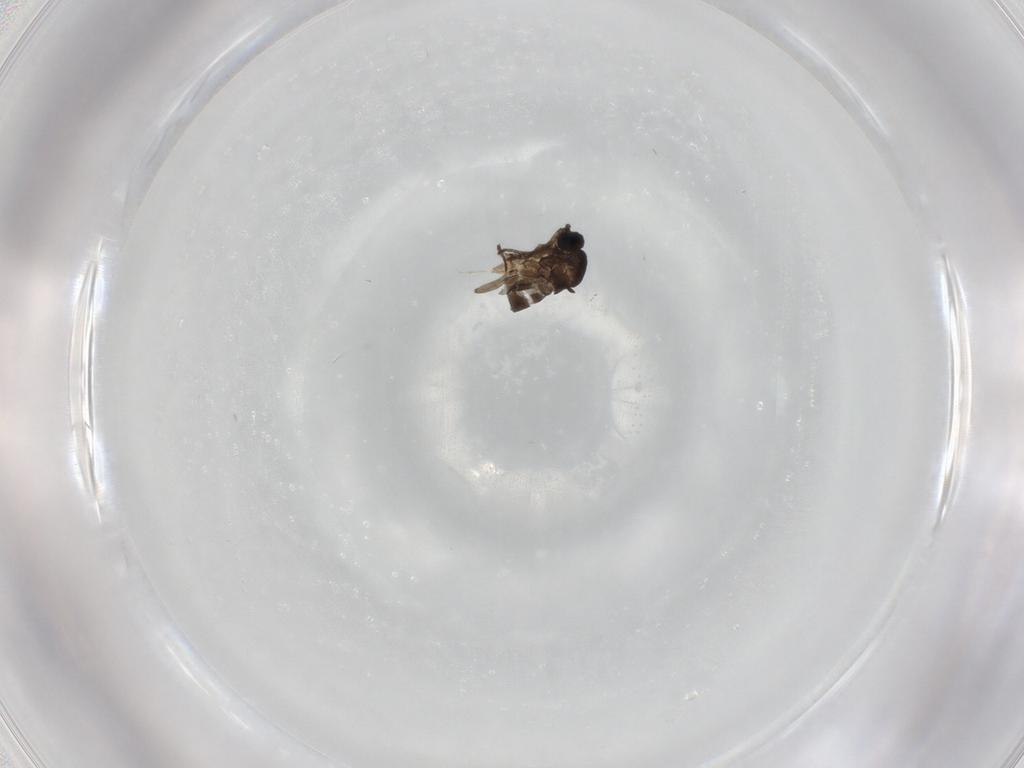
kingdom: Animalia
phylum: Arthropoda
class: Insecta
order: Diptera
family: Sciaridae
